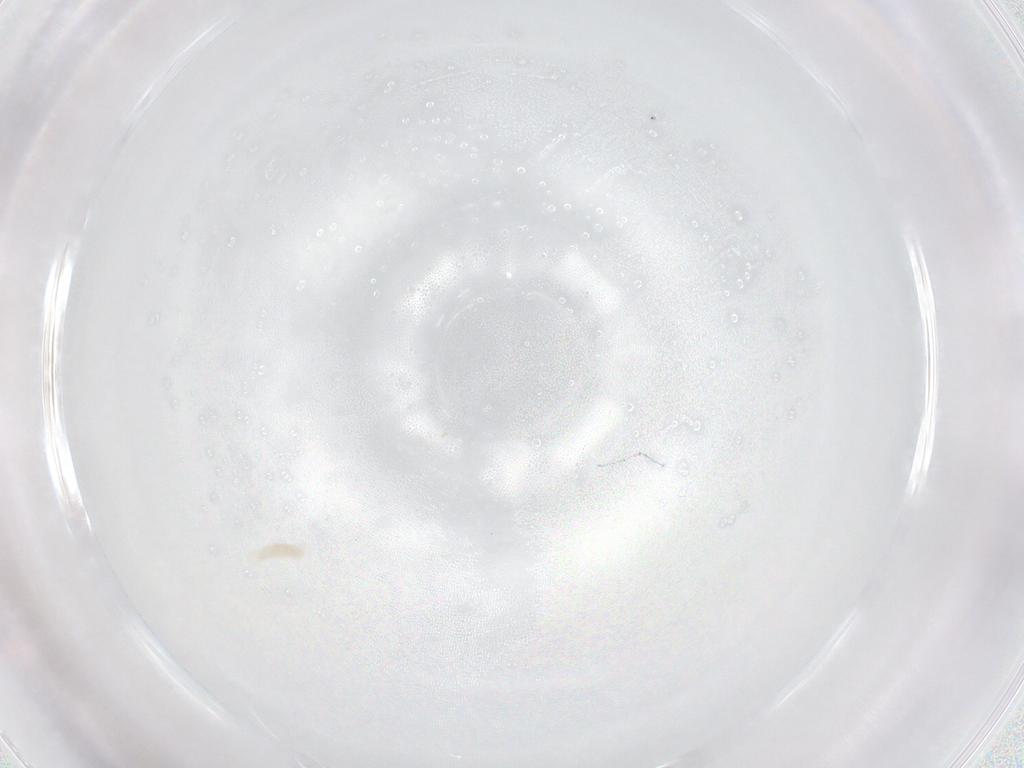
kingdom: Animalia
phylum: Arthropoda
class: Arachnida
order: Mesostigmata
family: Melicharidae
